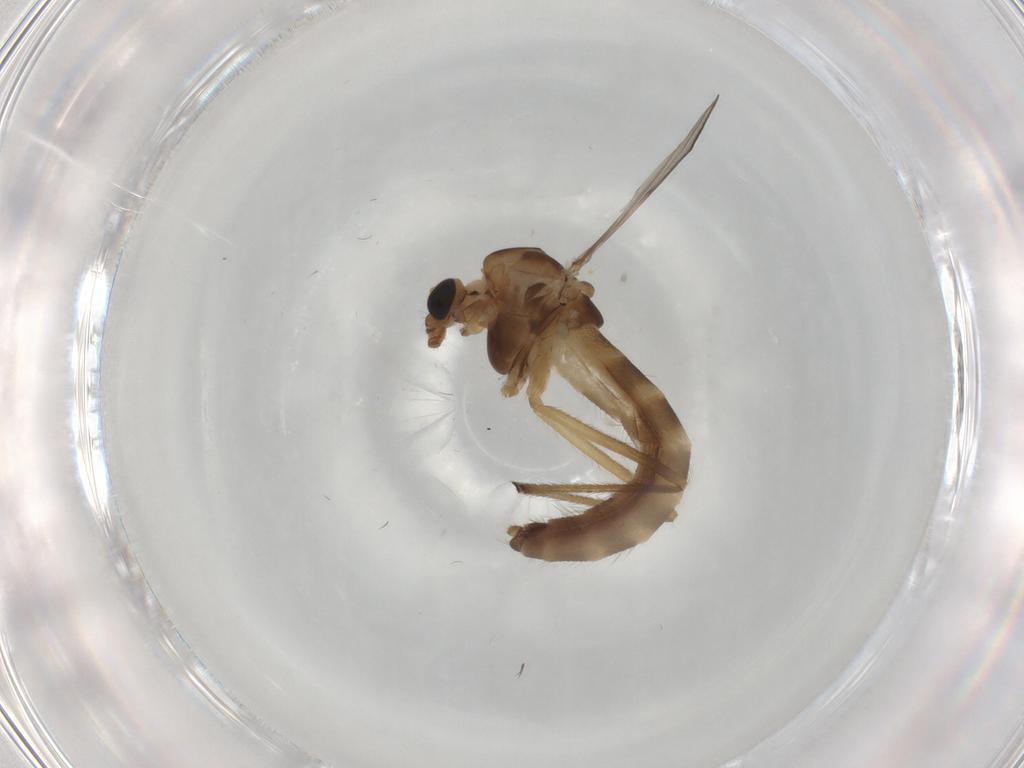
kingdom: Animalia
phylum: Arthropoda
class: Insecta
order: Diptera
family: Chironomidae
